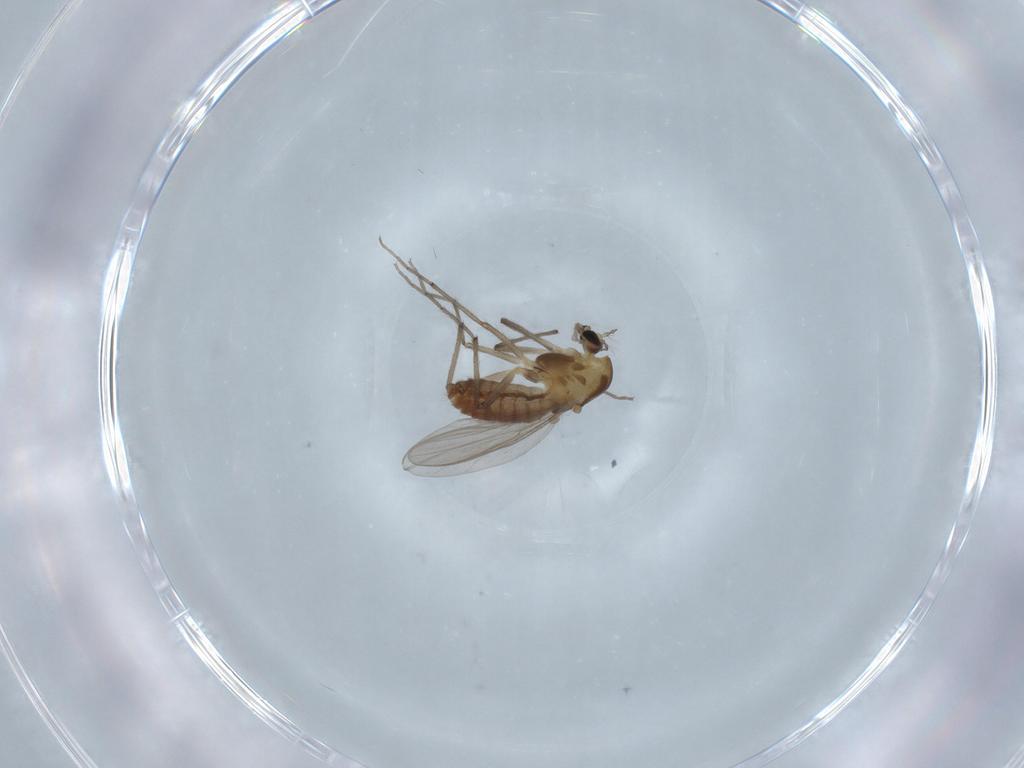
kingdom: Animalia
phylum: Arthropoda
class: Insecta
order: Diptera
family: Chironomidae
